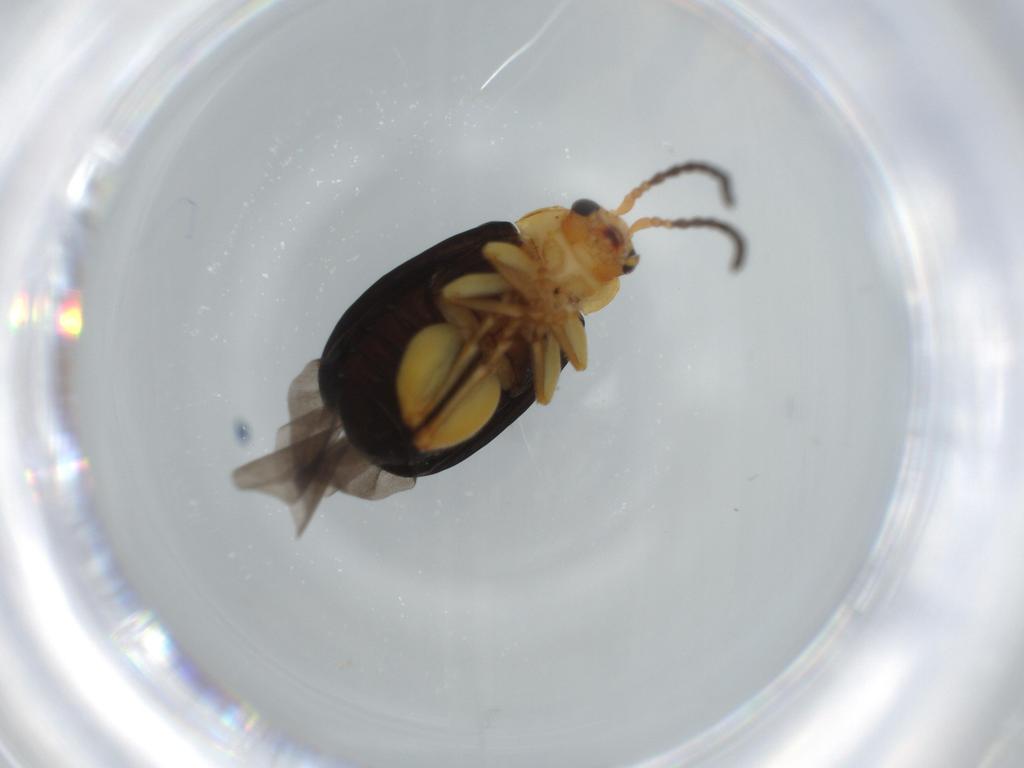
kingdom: Animalia
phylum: Arthropoda
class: Insecta
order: Coleoptera
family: Chrysomelidae
